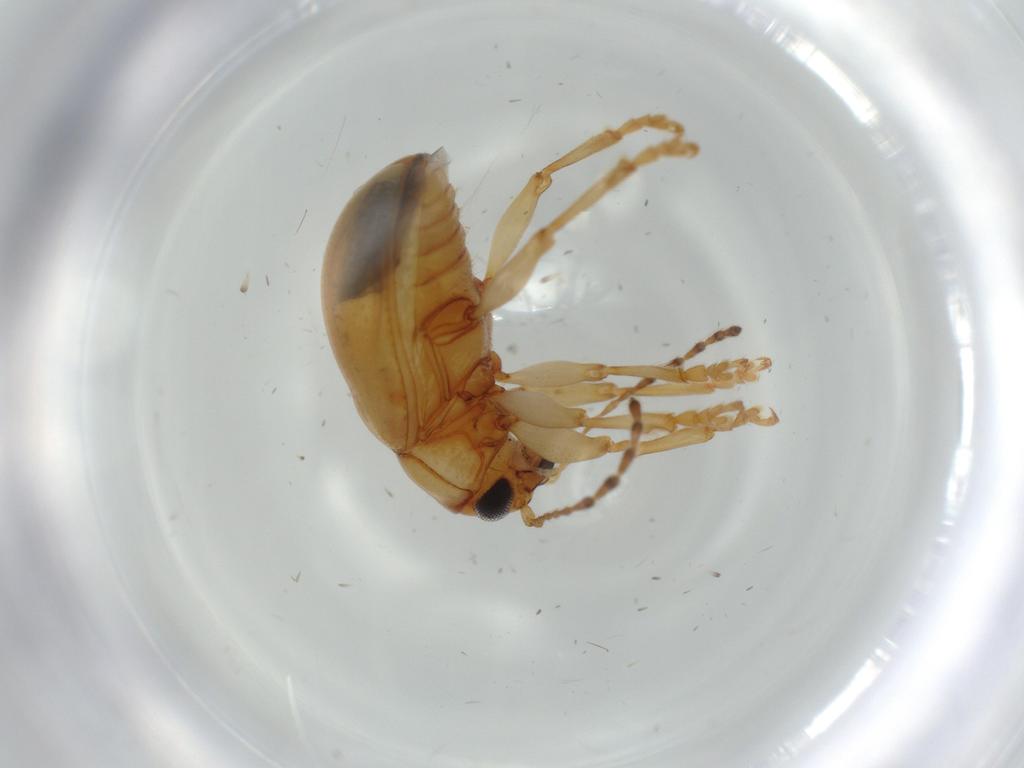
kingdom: Animalia
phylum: Arthropoda
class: Insecta
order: Coleoptera
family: Chrysomelidae
